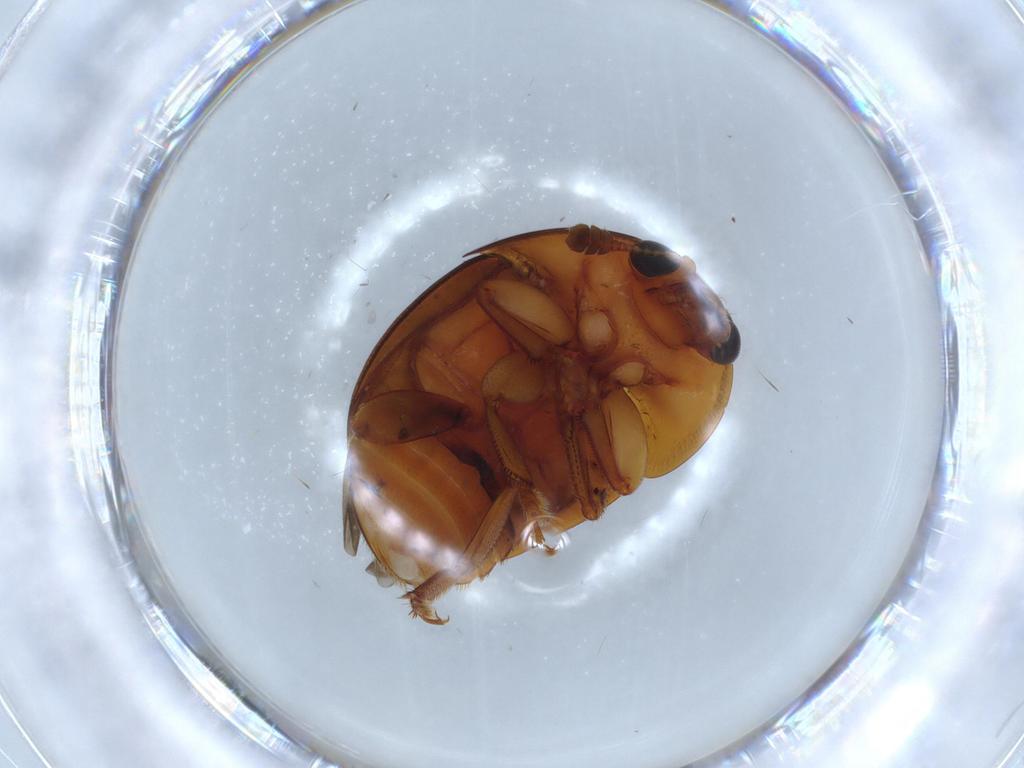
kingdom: Animalia
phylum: Arthropoda
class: Insecta
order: Coleoptera
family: Nitidulidae
